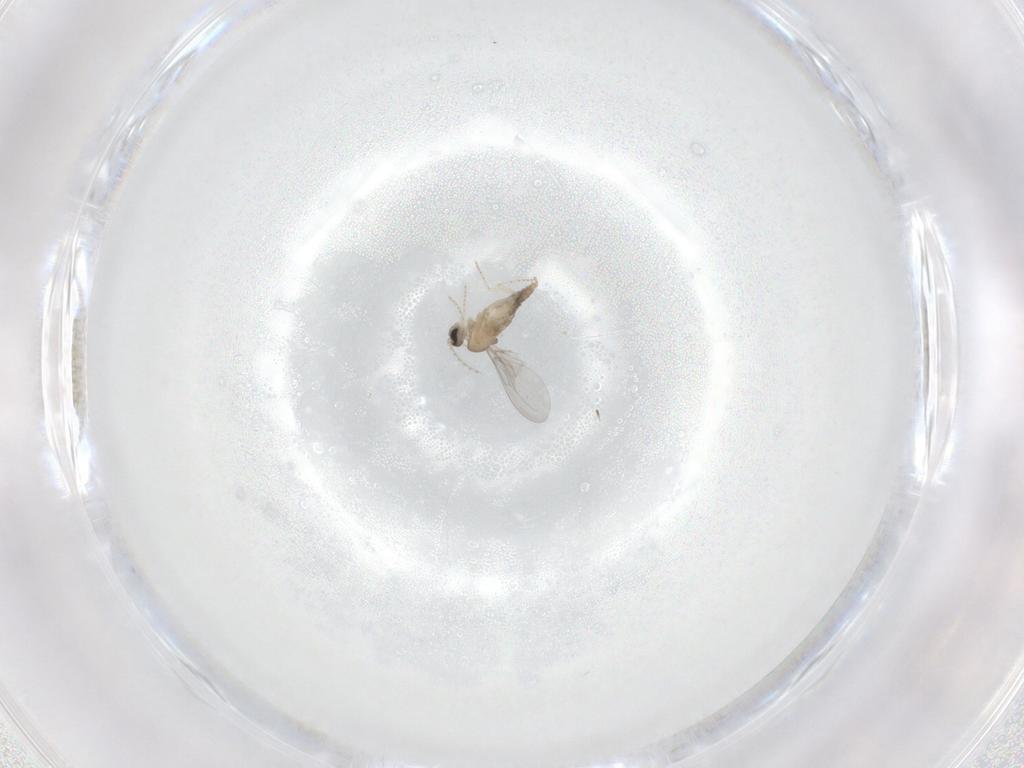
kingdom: Animalia
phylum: Arthropoda
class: Insecta
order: Diptera
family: Cecidomyiidae
